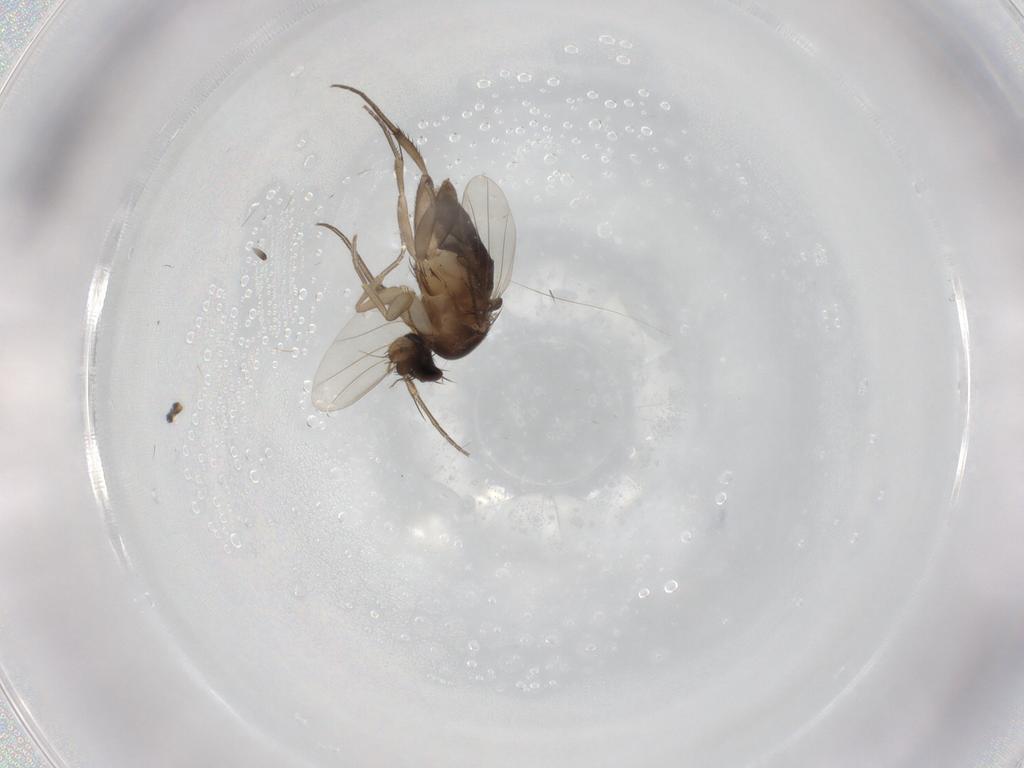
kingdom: Animalia
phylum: Arthropoda
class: Insecta
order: Diptera
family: Phoridae
